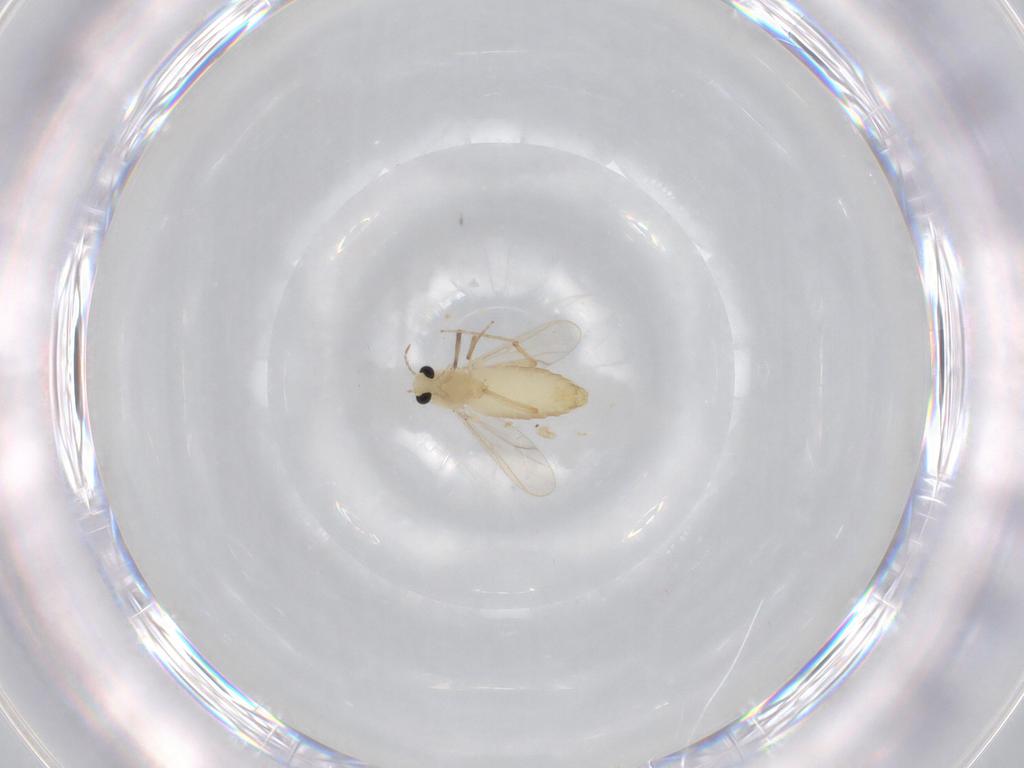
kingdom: Animalia
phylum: Arthropoda
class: Insecta
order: Diptera
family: Chironomidae
